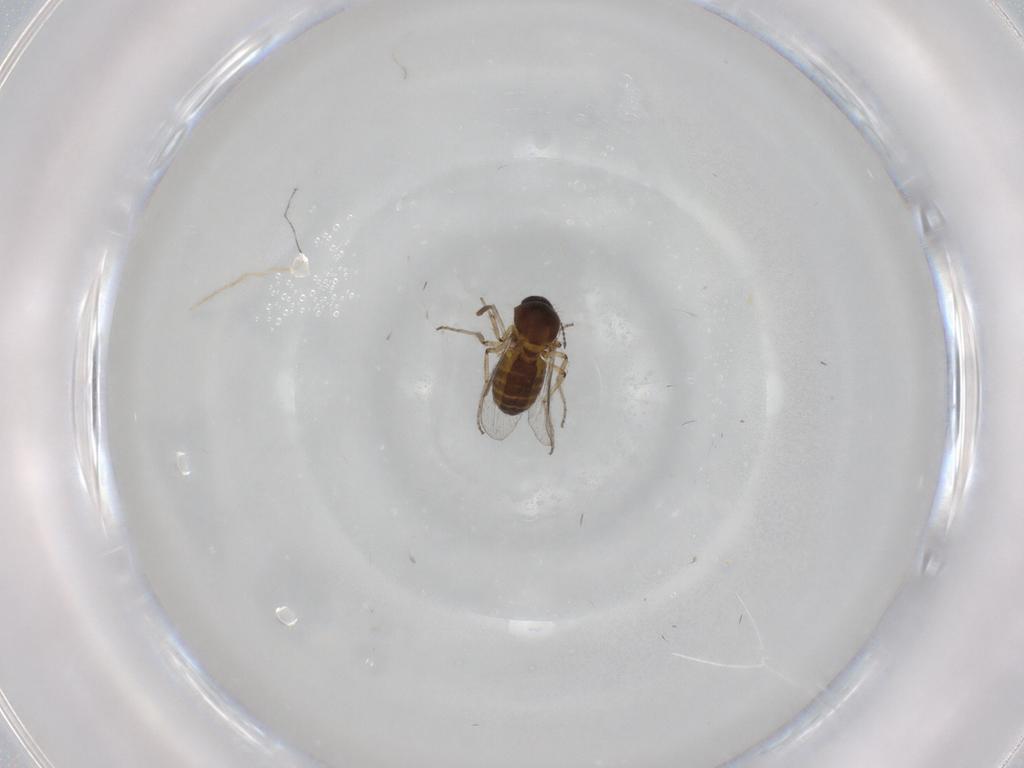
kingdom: Animalia
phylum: Arthropoda
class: Insecta
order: Diptera
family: Ceratopogonidae
